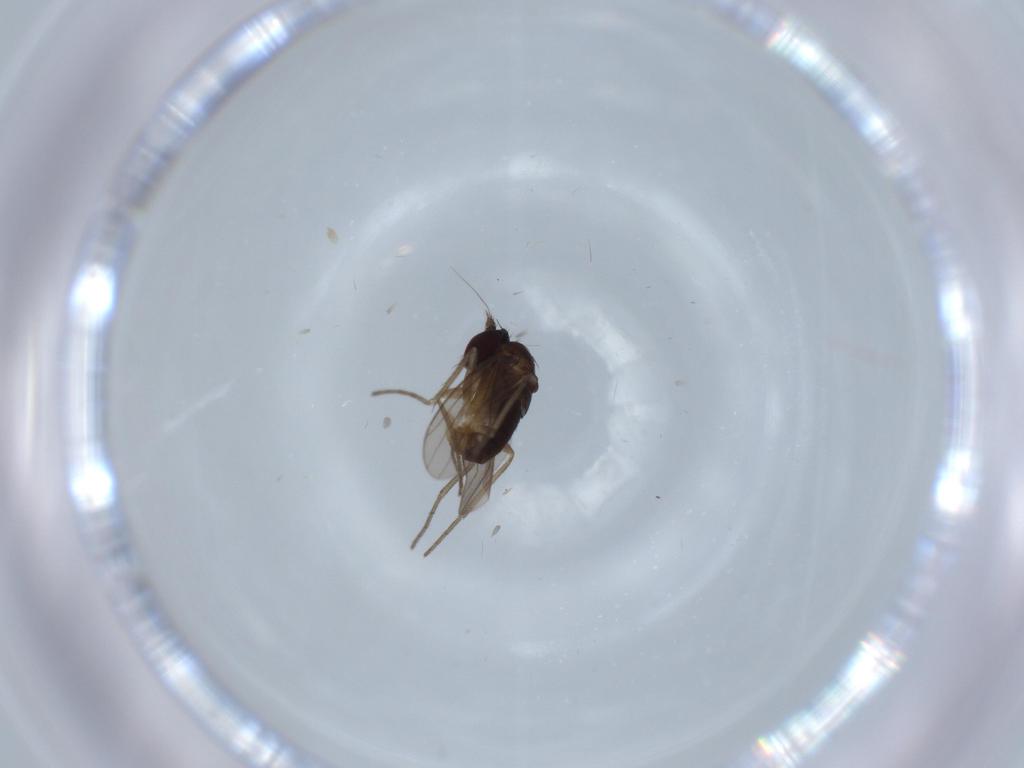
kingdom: Animalia
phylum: Arthropoda
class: Insecta
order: Diptera
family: Dolichopodidae
